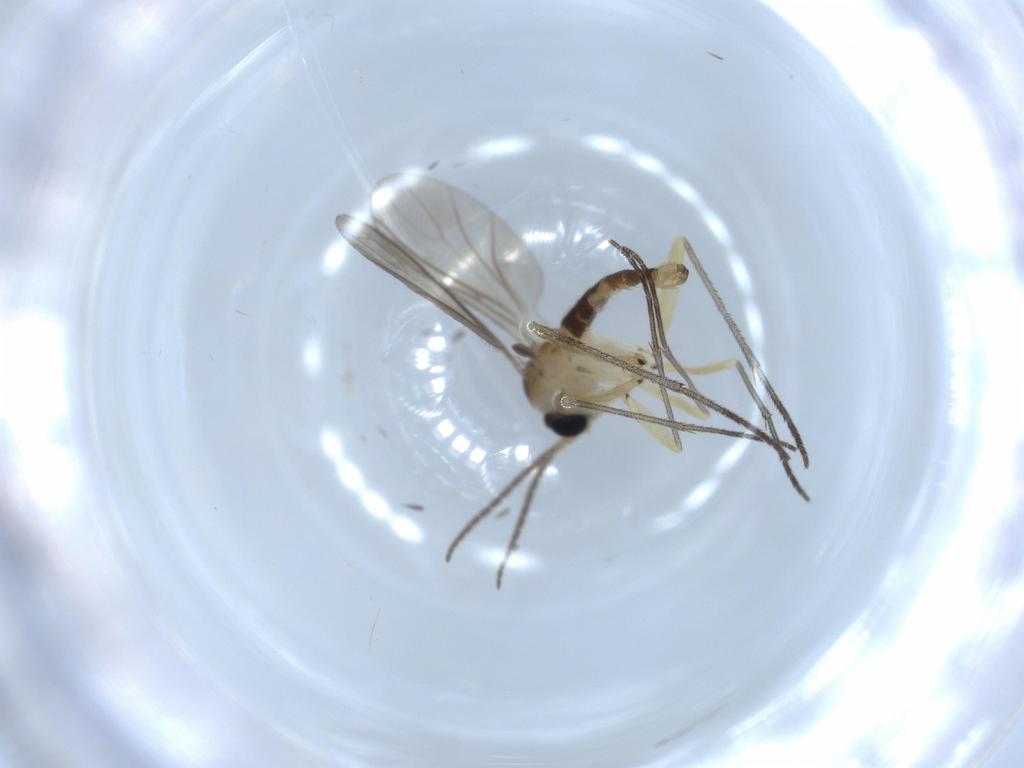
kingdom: Animalia
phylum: Arthropoda
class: Insecta
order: Diptera
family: Sciaridae
